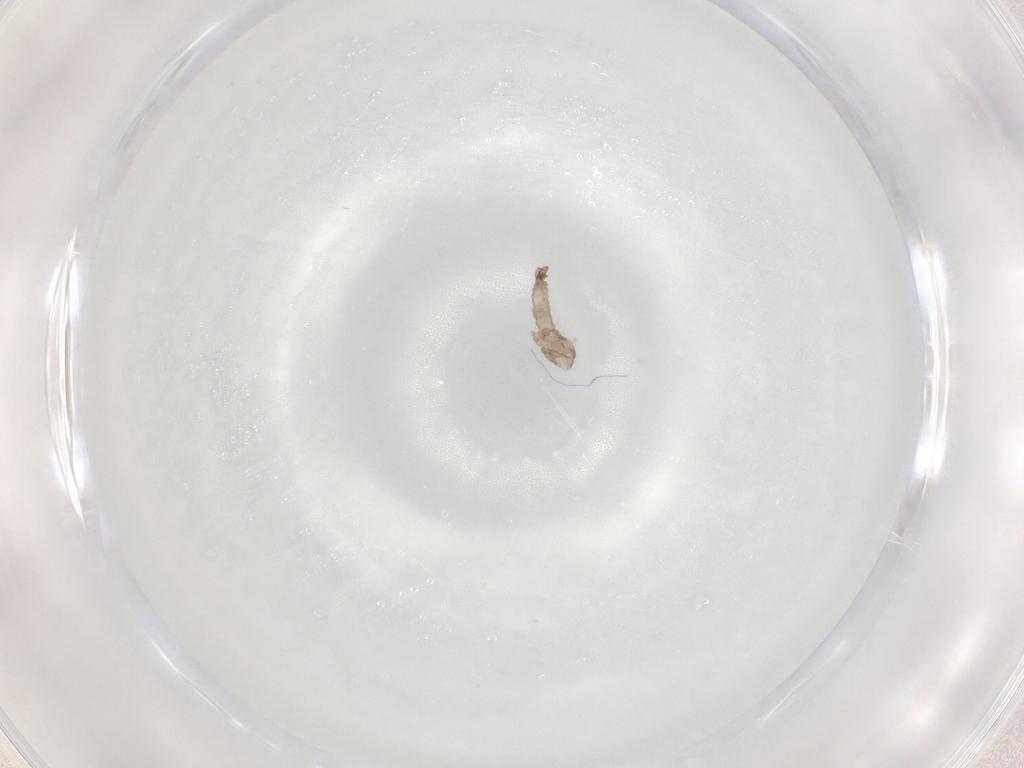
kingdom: Animalia
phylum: Arthropoda
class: Insecta
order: Diptera
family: Cecidomyiidae
